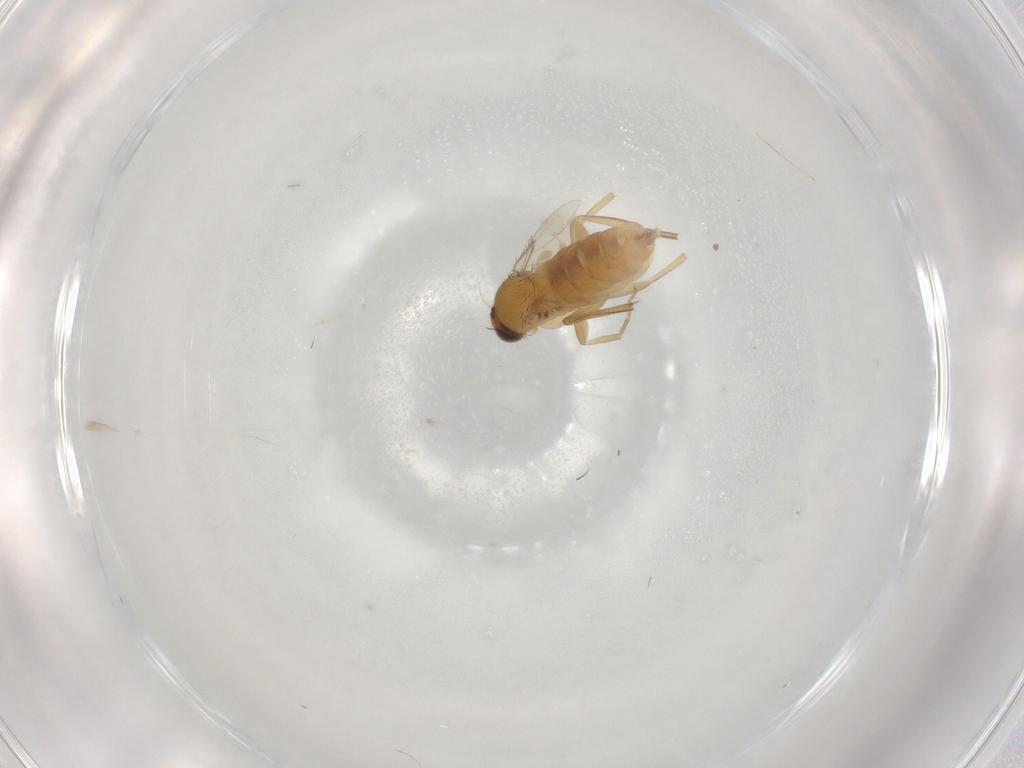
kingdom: Animalia
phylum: Arthropoda
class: Insecta
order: Diptera
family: Phoridae
